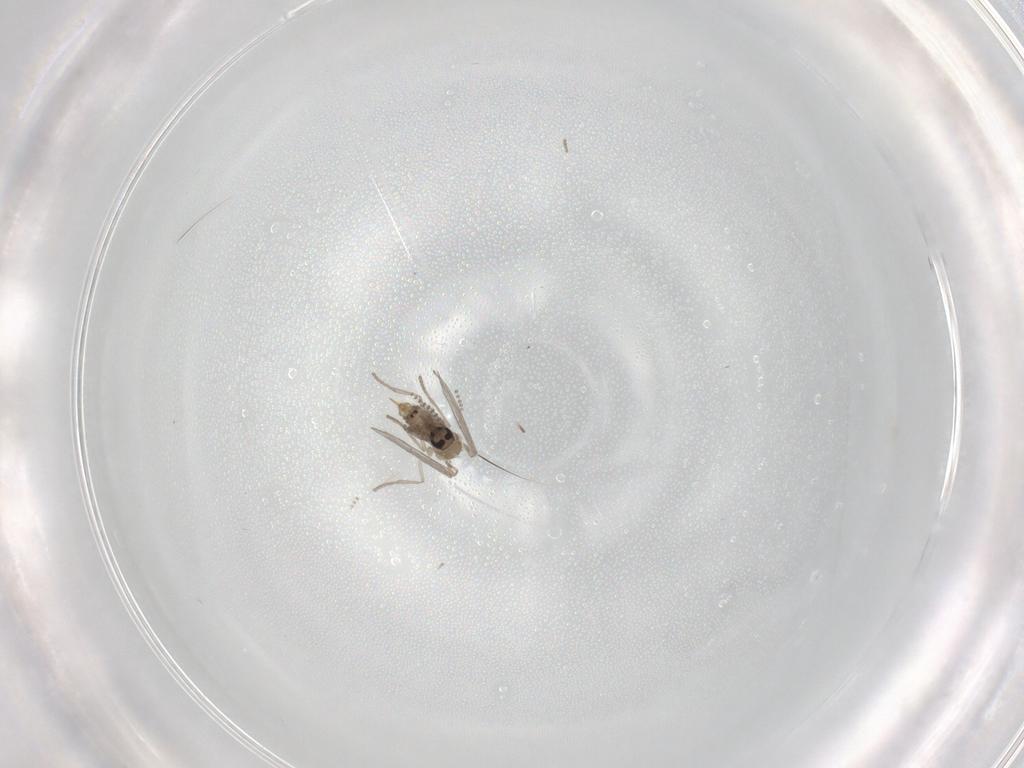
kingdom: Animalia
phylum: Arthropoda
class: Insecta
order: Diptera
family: Psychodidae
